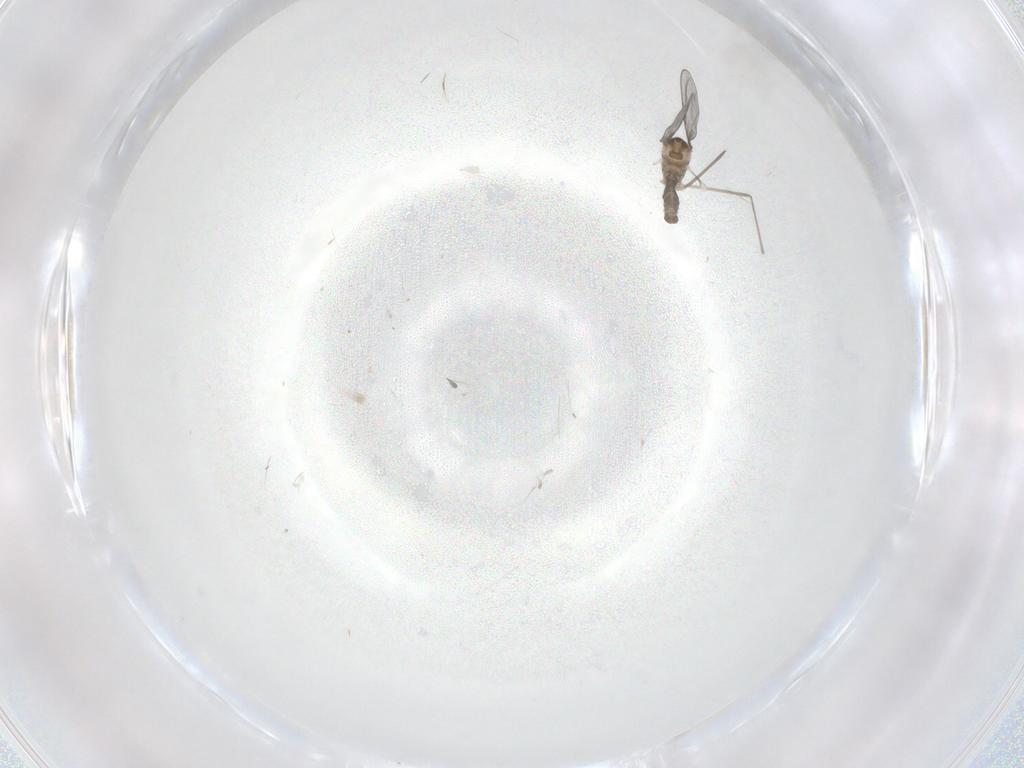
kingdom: Animalia
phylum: Arthropoda
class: Insecta
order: Diptera
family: Cecidomyiidae
